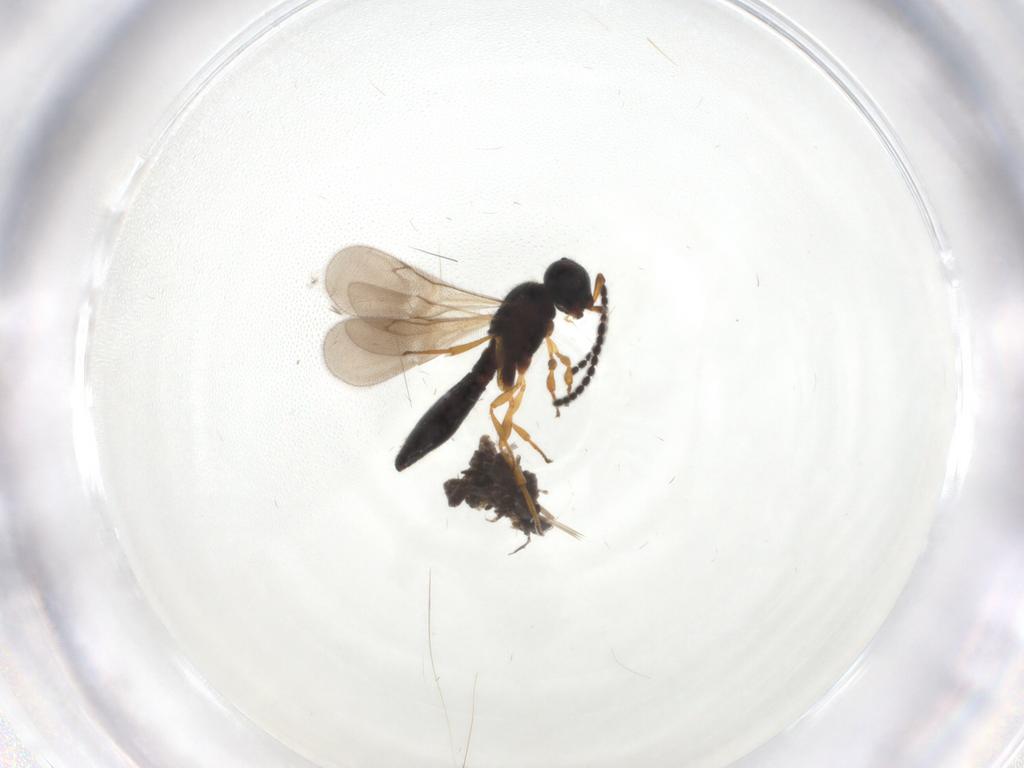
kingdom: Animalia
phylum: Arthropoda
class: Insecta
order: Hymenoptera
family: Scelionidae
